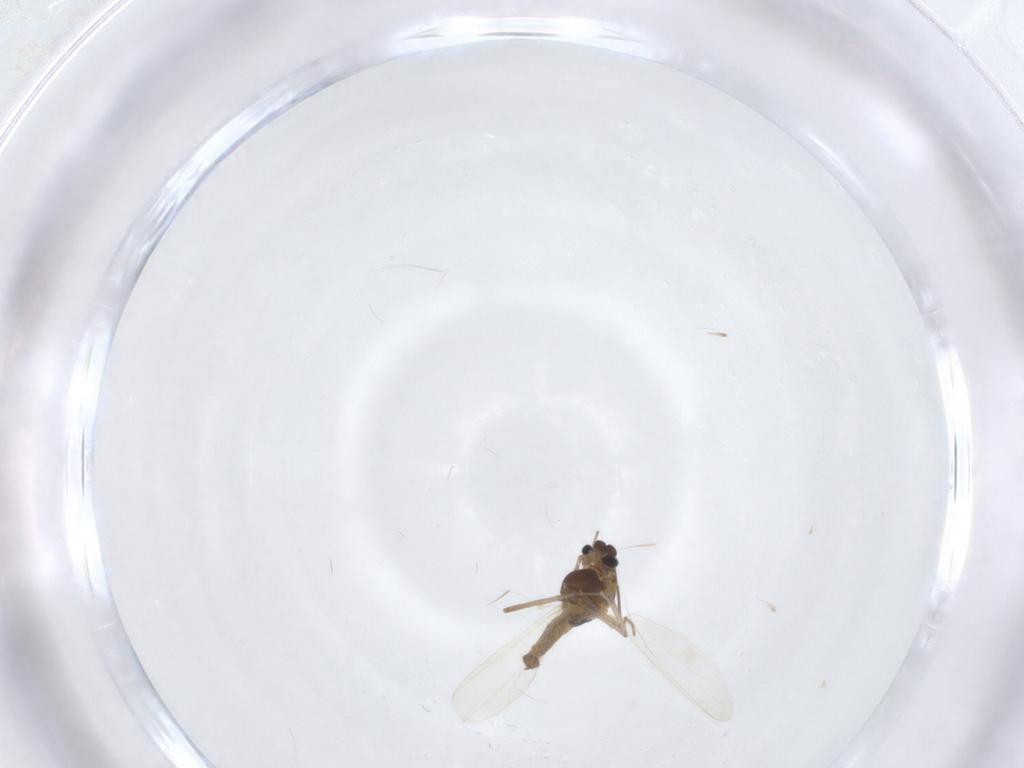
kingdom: Animalia
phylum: Arthropoda
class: Insecta
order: Diptera
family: Chironomidae
